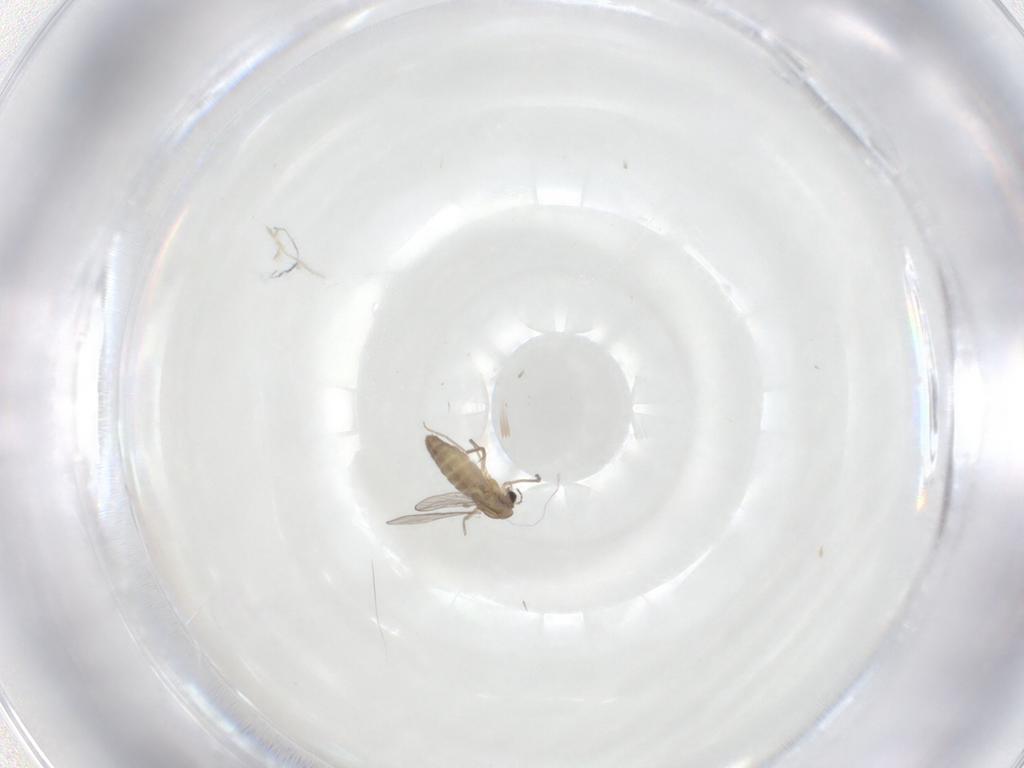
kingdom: Animalia
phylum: Arthropoda
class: Insecta
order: Diptera
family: Chironomidae
